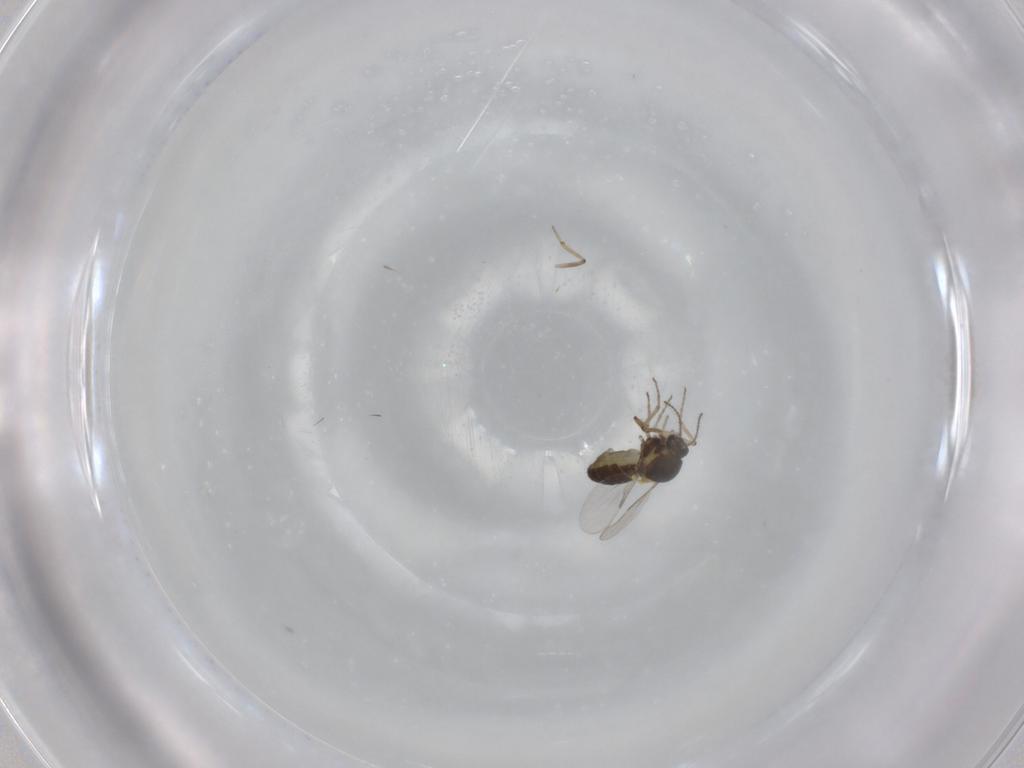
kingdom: Animalia
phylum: Arthropoda
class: Insecta
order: Diptera
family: Ceratopogonidae
